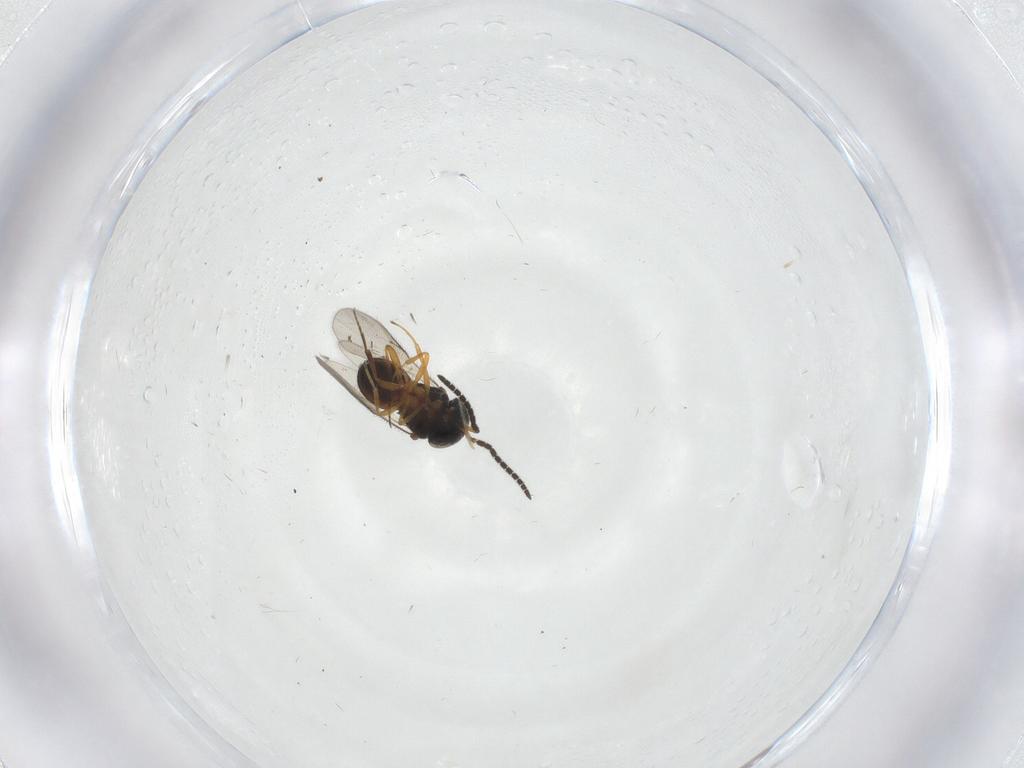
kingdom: Animalia
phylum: Arthropoda
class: Insecta
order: Hymenoptera
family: Scelionidae
